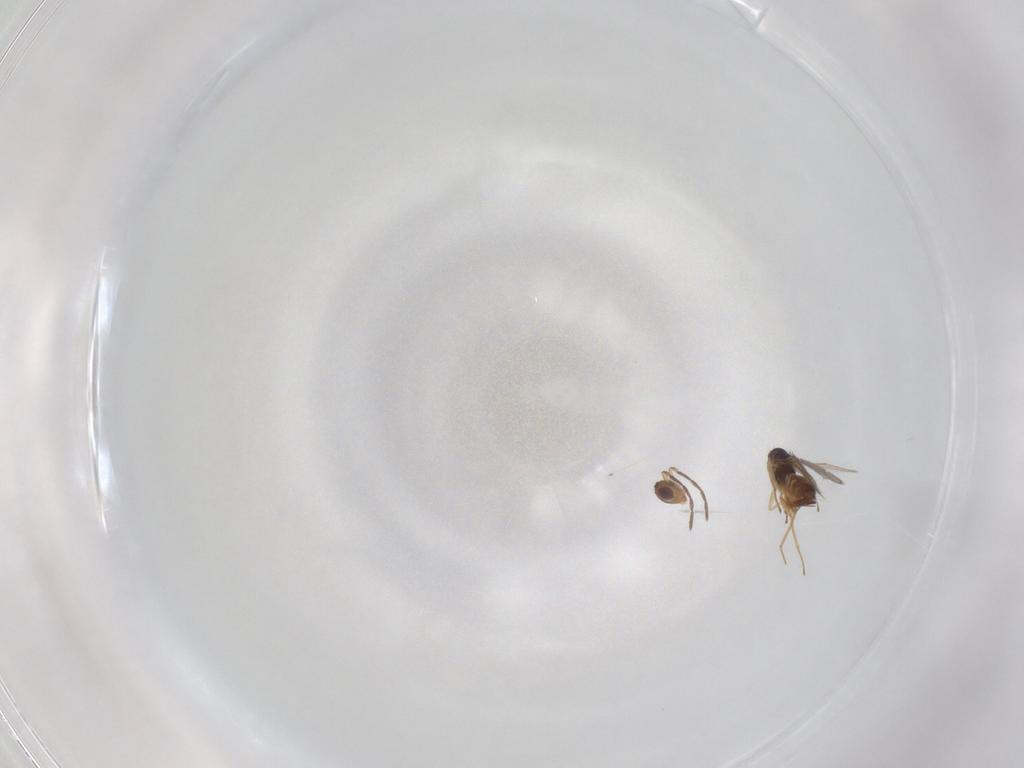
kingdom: Animalia
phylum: Arthropoda
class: Insecta
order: Hymenoptera
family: Eulophidae
